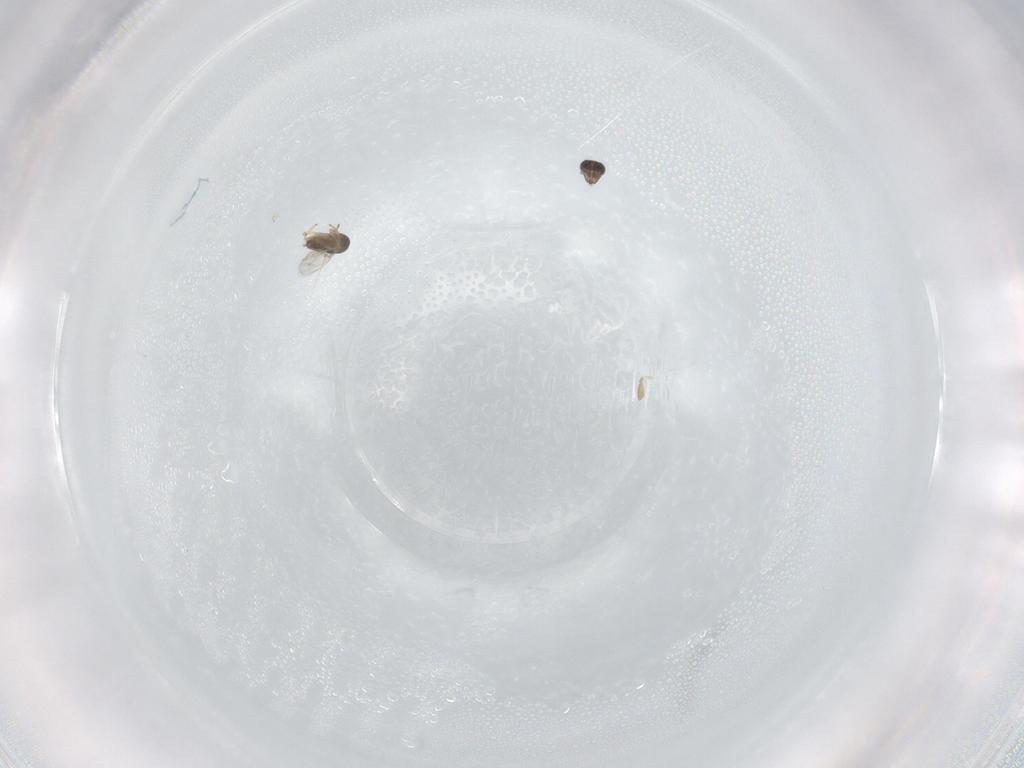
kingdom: Animalia
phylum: Arthropoda
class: Insecta
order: Hymenoptera
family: Encyrtidae
